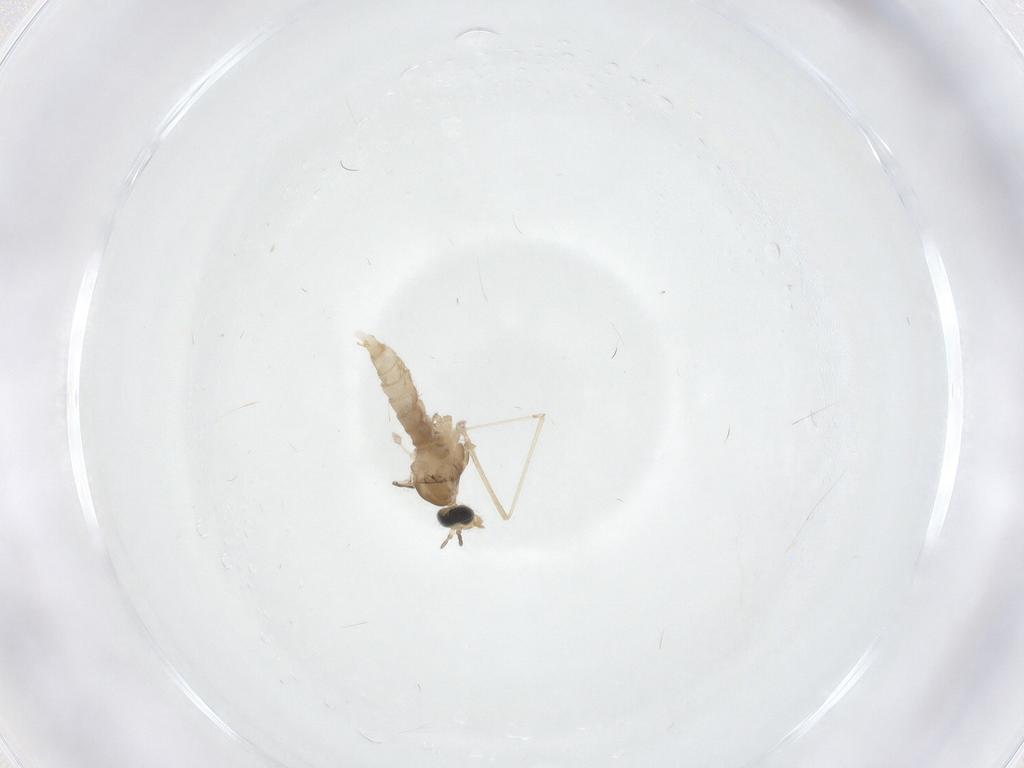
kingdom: Animalia
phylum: Arthropoda
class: Insecta
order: Diptera
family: Cecidomyiidae
